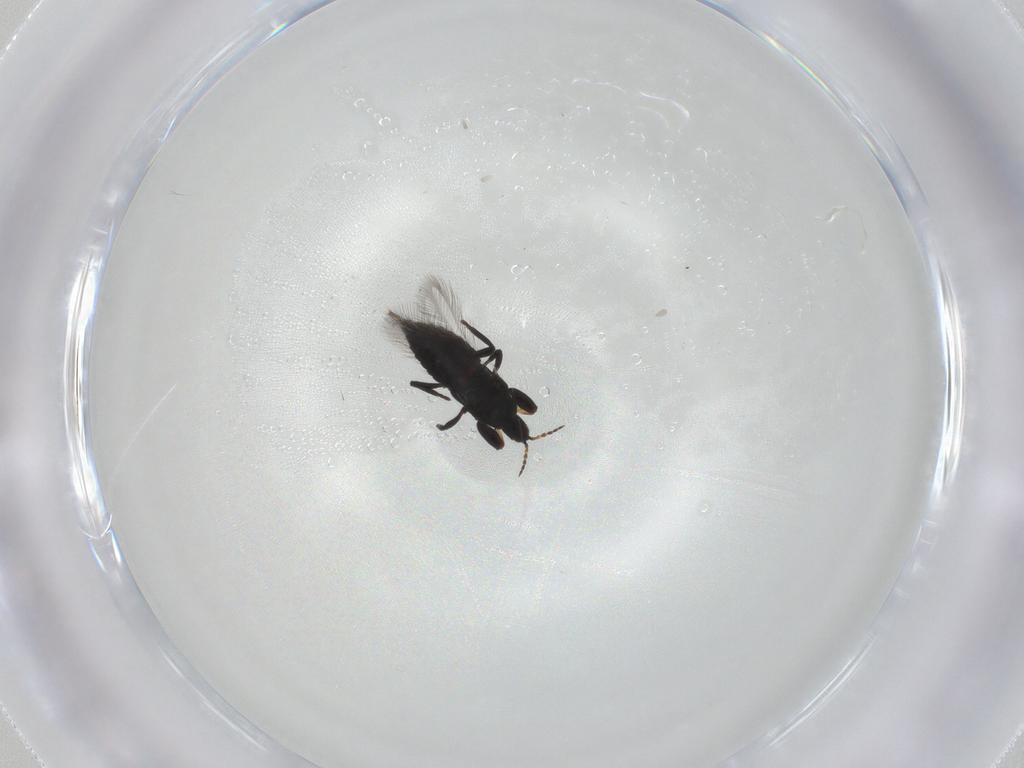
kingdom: Animalia
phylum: Arthropoda
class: Insecta
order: Thysanoptera
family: Phlaeothripidae
